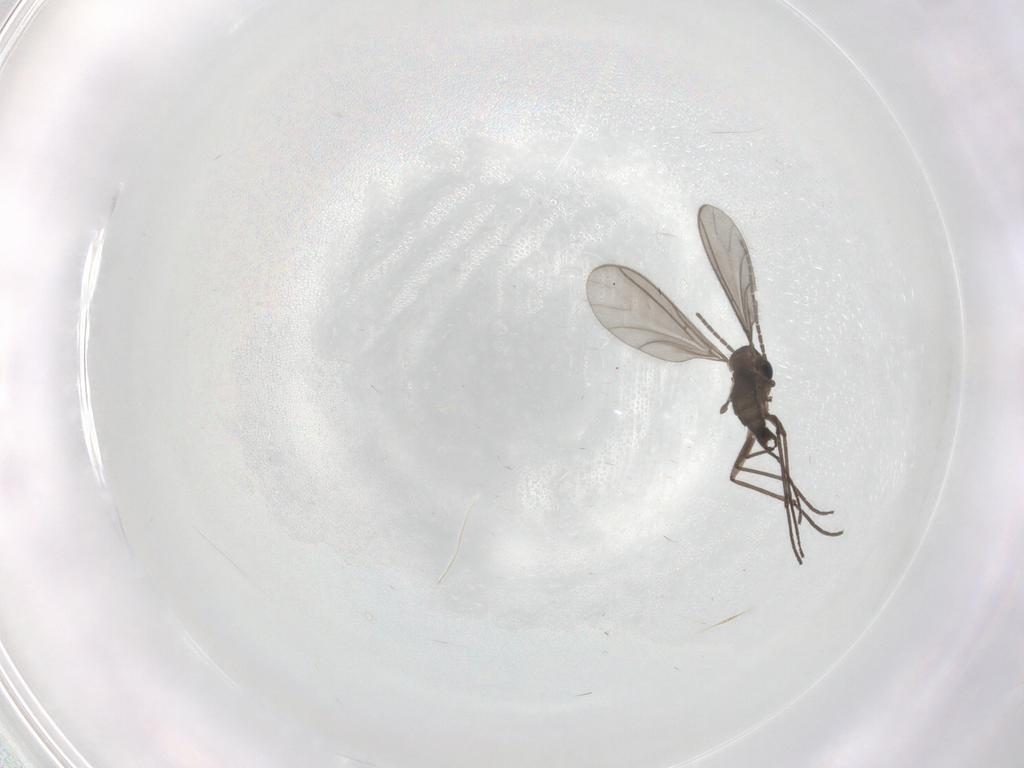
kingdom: Animalia
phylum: Arthropoda
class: Insecta
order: Diptera
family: Sciaridae
